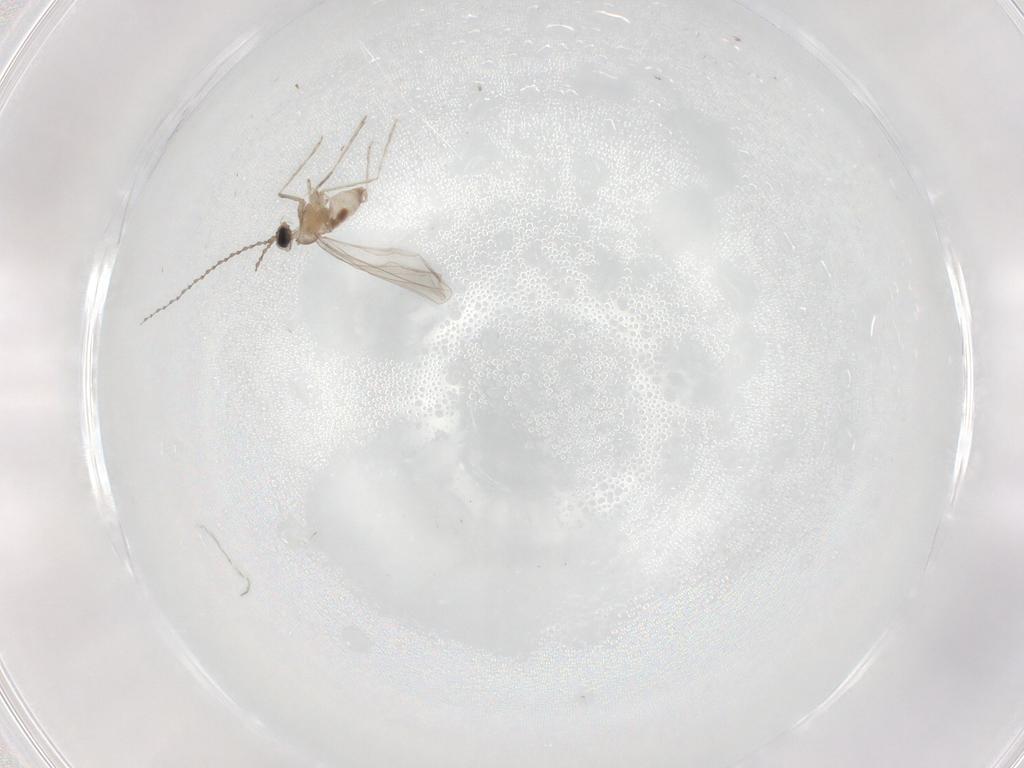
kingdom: Animalia
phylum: Arthropoda
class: Insecta
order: Diptera
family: Cecidomyiidae
